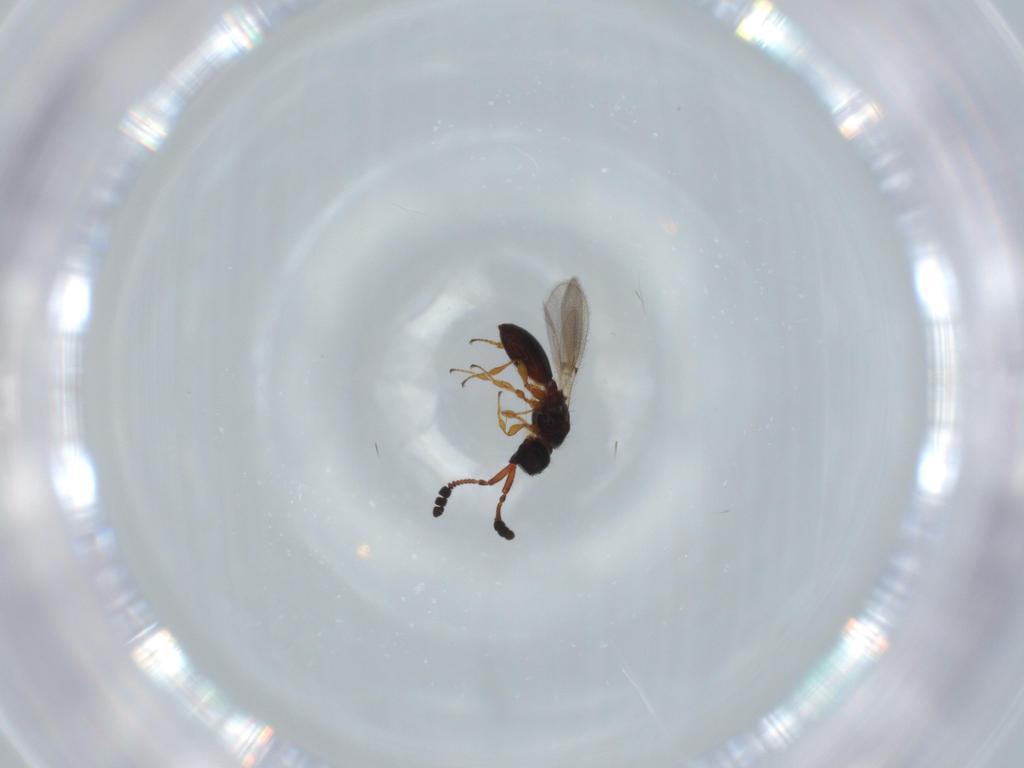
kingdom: Animalia
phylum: Arthropoda
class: Insecta
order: Hymenoptera
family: Diapriidae
